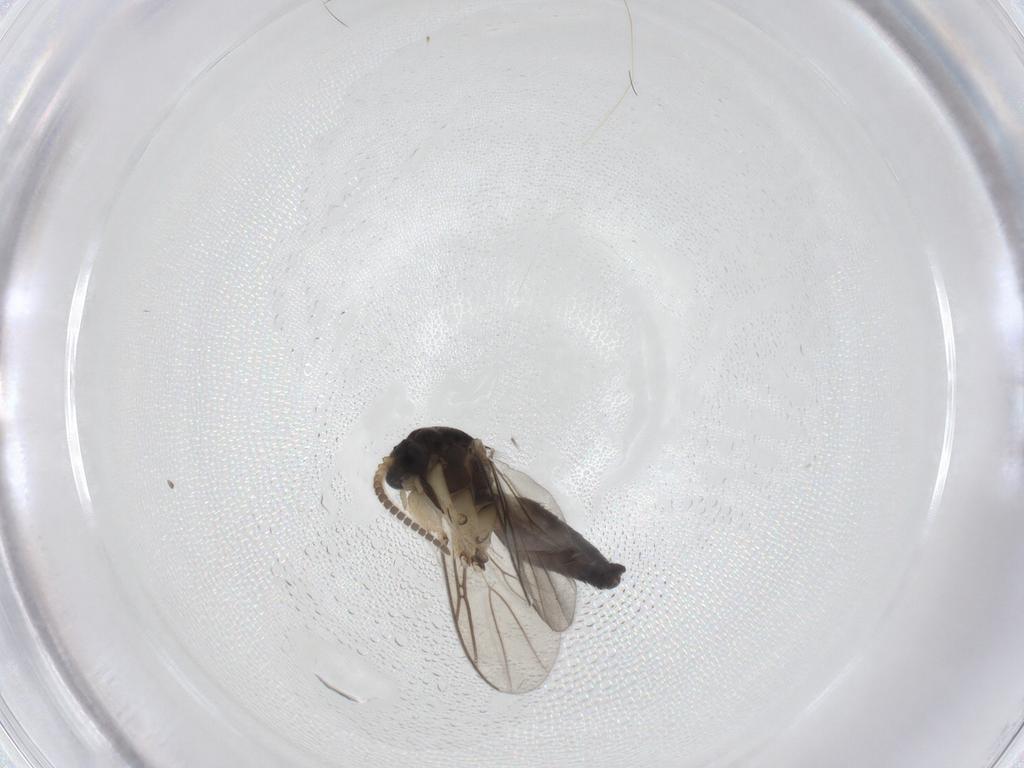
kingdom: Animalia
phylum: Arthropoda
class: Insecta
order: Diptera
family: Mycetophilidae
